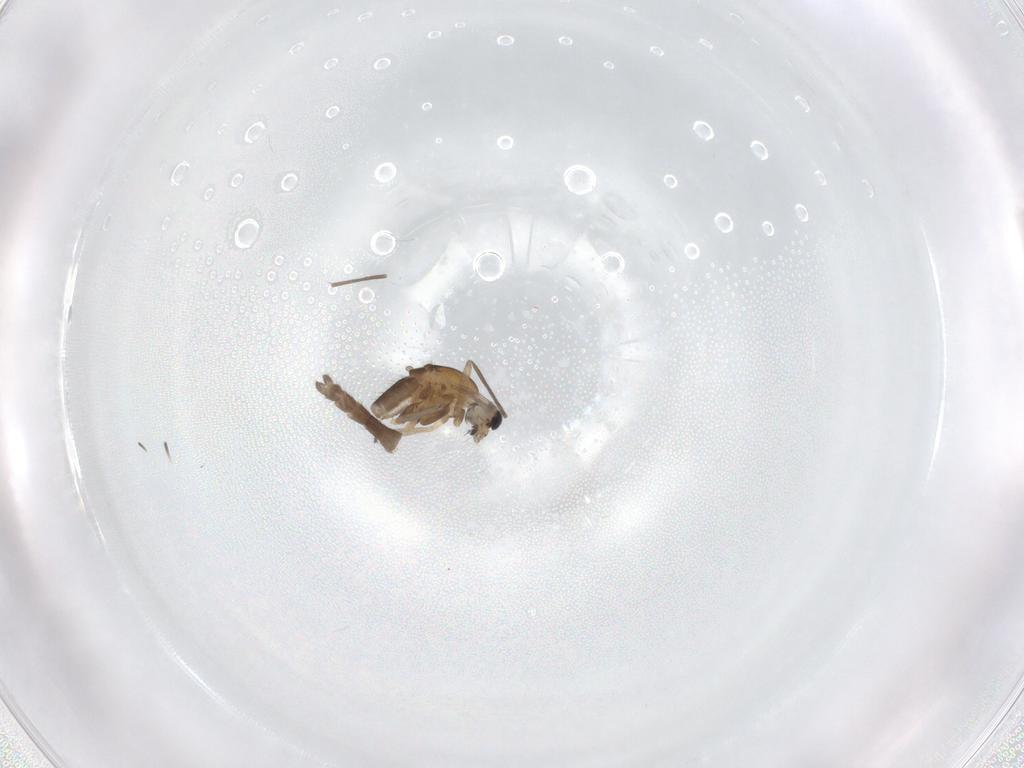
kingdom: Animalia
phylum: Arthropoda
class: Insecta
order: Diptera
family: Chironomidae
